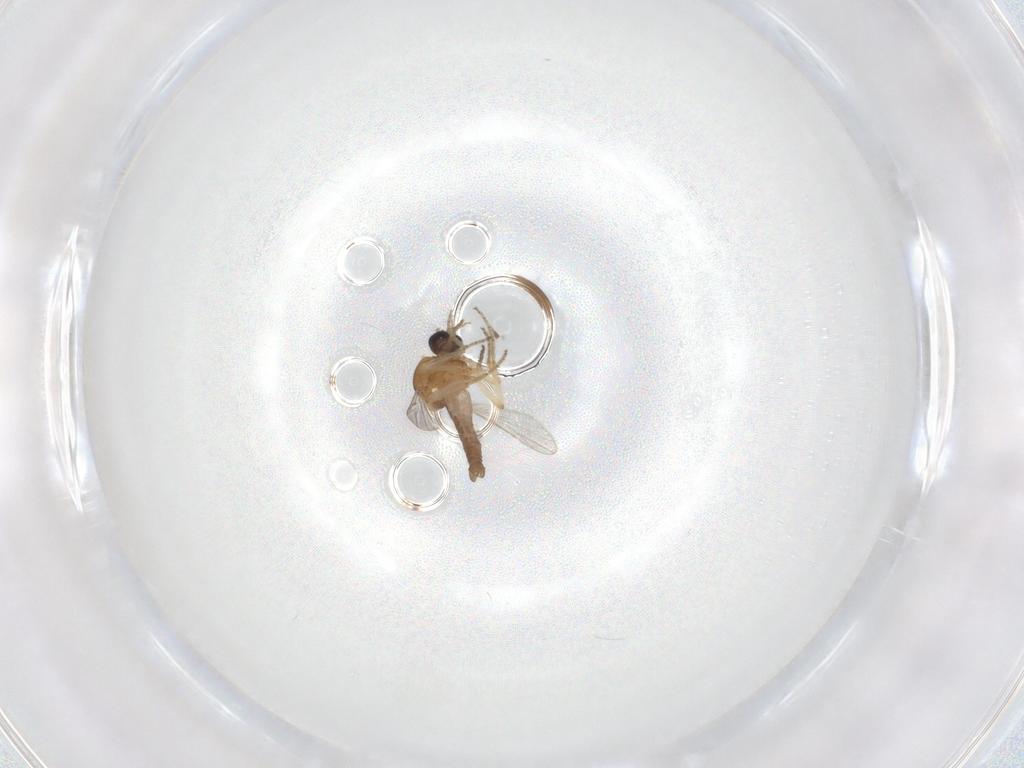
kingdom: Animalia
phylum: Arthropoda
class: Insecta
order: Diptera
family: Ceratopogonidae
